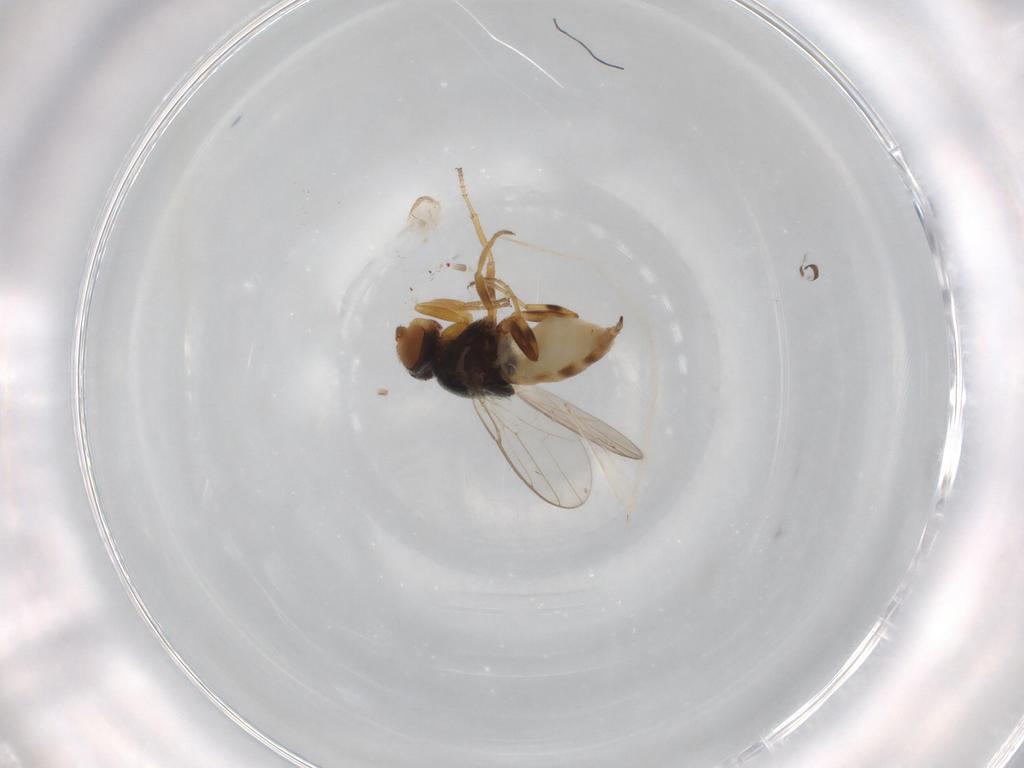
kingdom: Animalia
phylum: Arthropoda
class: Insecta
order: Diptera
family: Chloropidae
